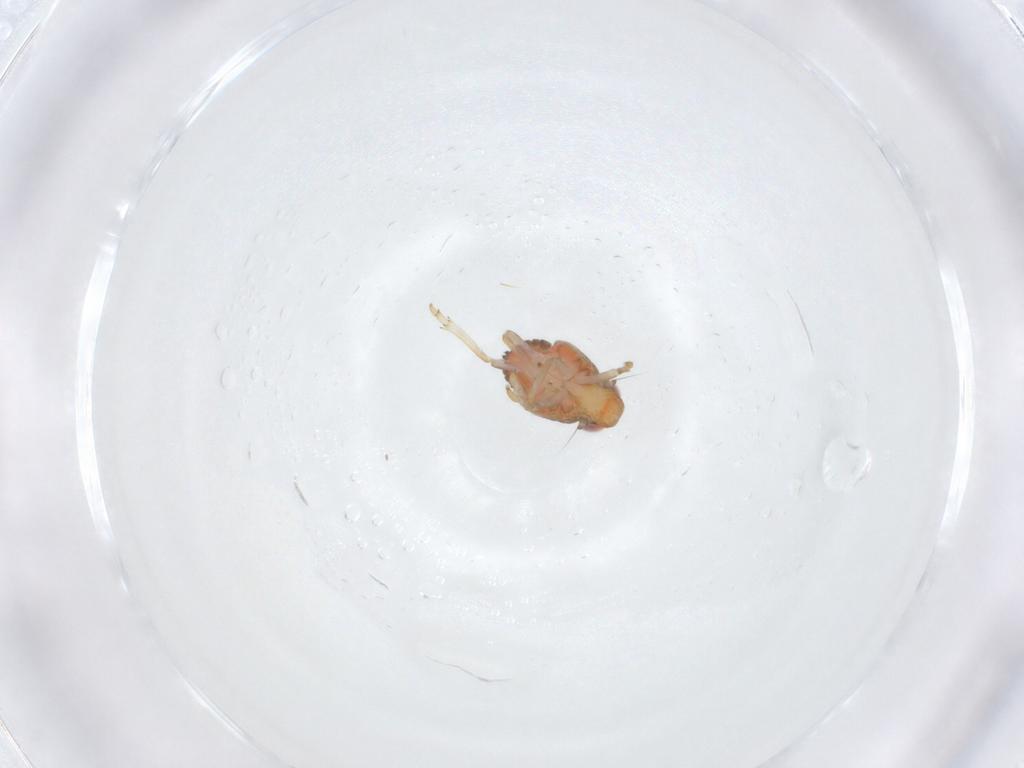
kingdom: Animalia
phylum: Arthropoda
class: Insecta
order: Hemiptera
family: Issidae
